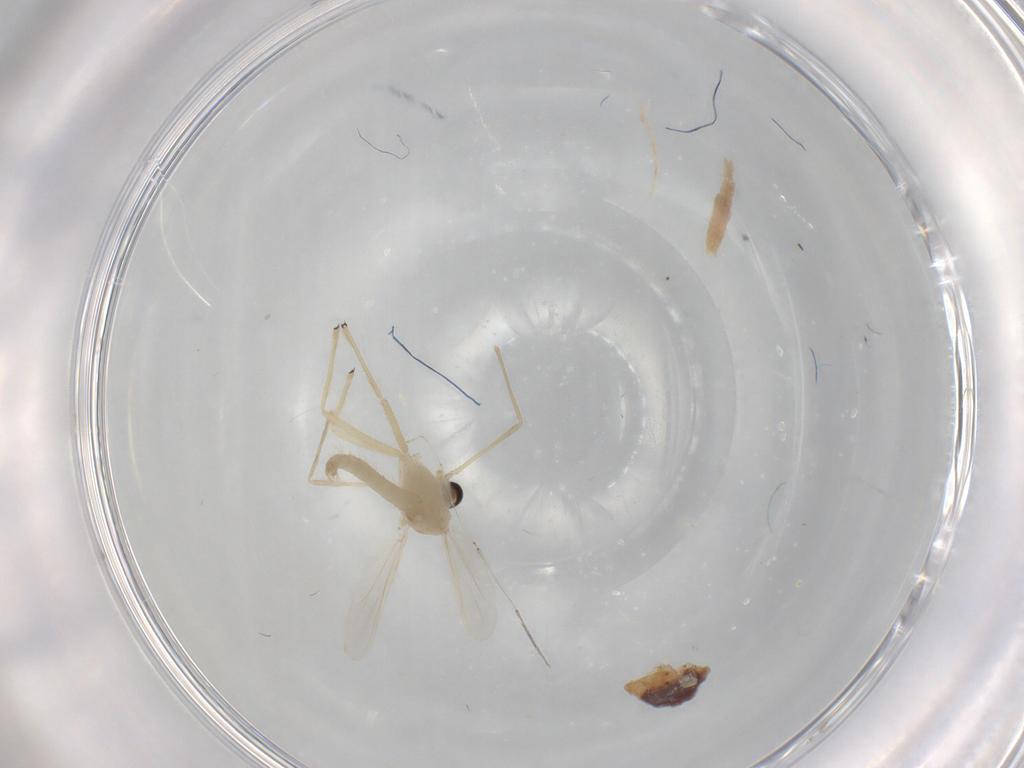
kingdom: Animalia
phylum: Arthropoda
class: Insecta
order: Diptera
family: Cecidomyiidae
